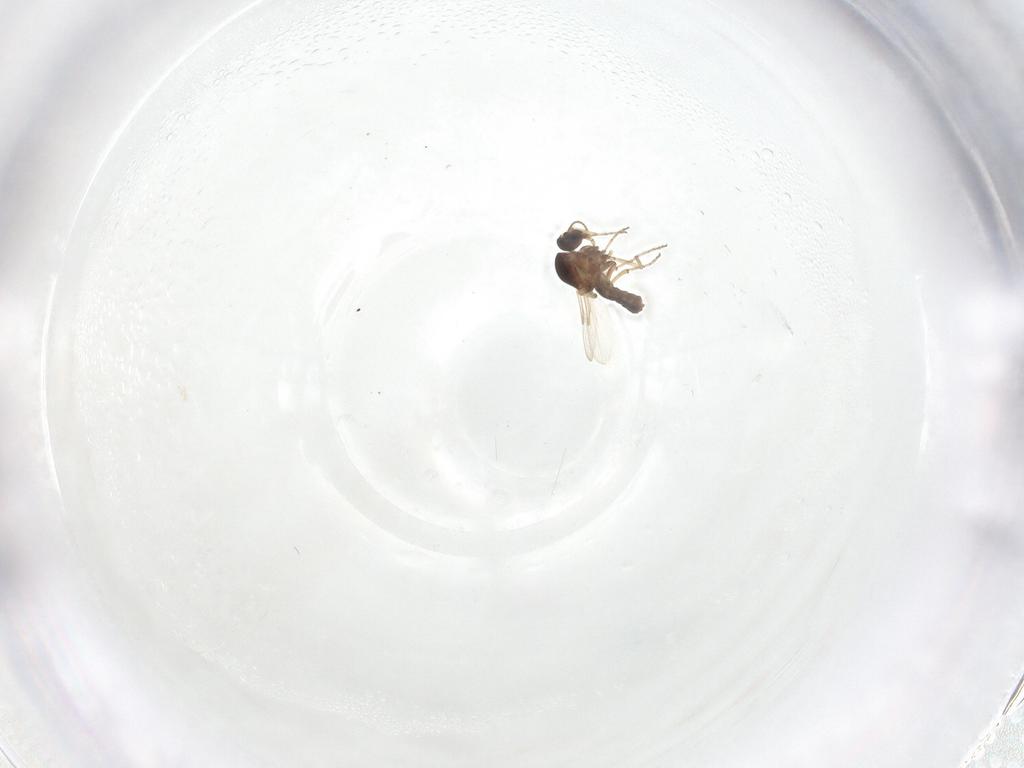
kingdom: Animalia
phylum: Arthropoda
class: Insecta
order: Diptera
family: Ceratopogonidae
